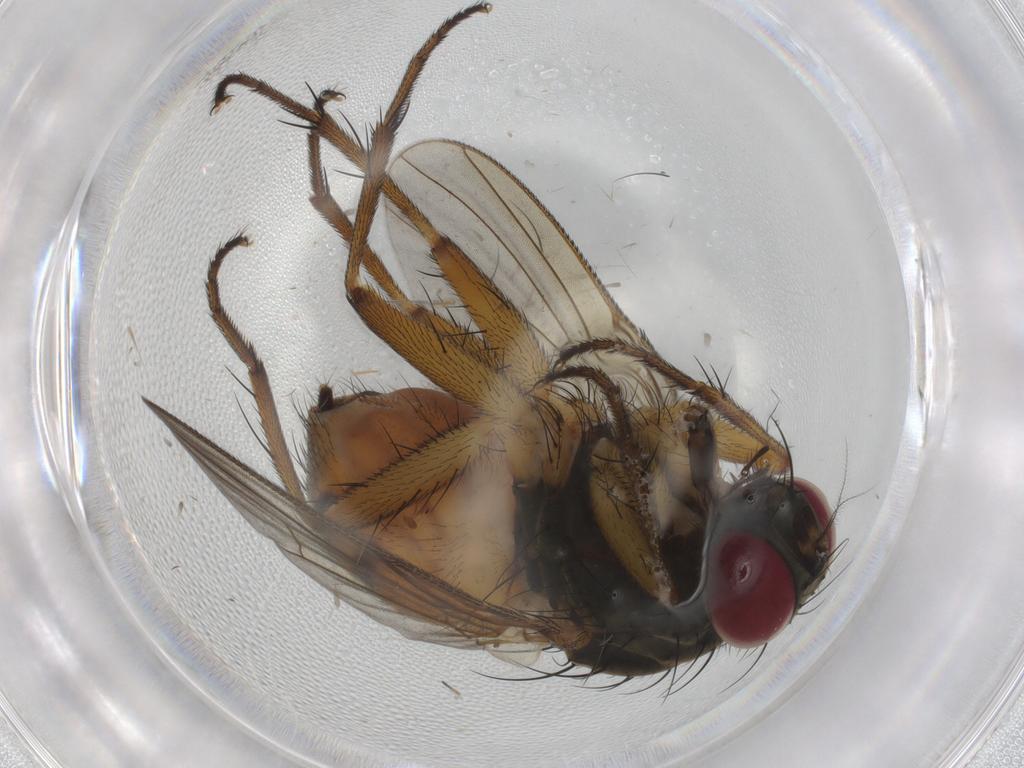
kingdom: Animalia
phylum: Arthropoda
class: Insecta
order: Diptera
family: Muscidae
